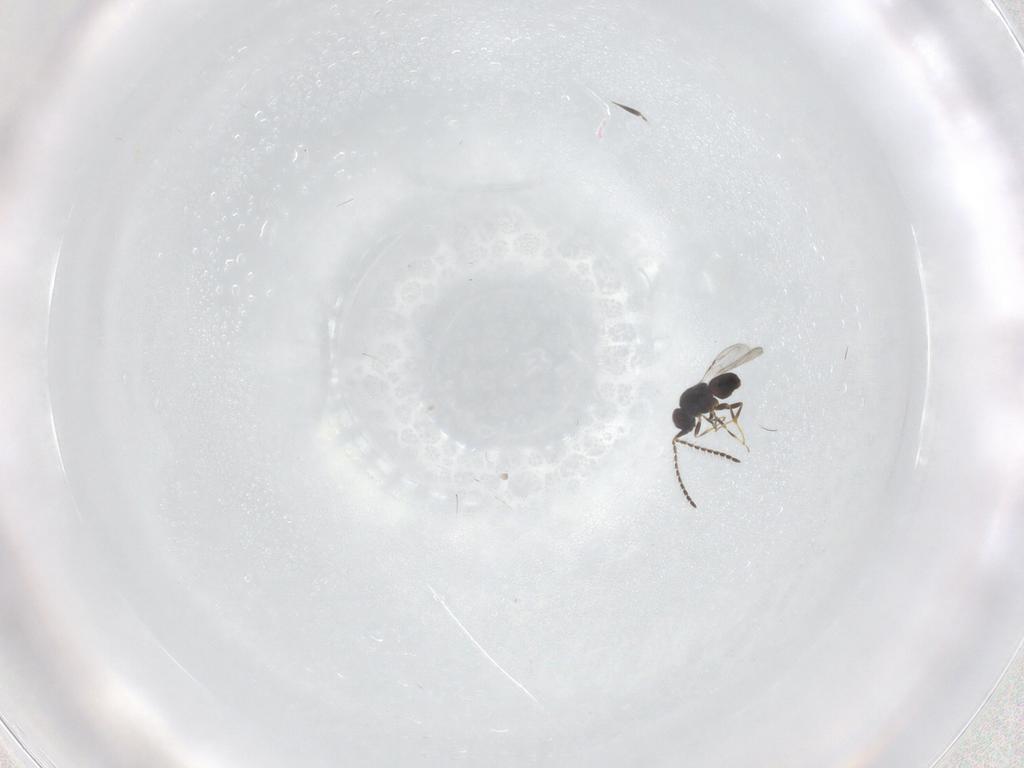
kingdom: Animalia
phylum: Arthropoda
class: Insecta
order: Hymenoptera
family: Scelionidae
